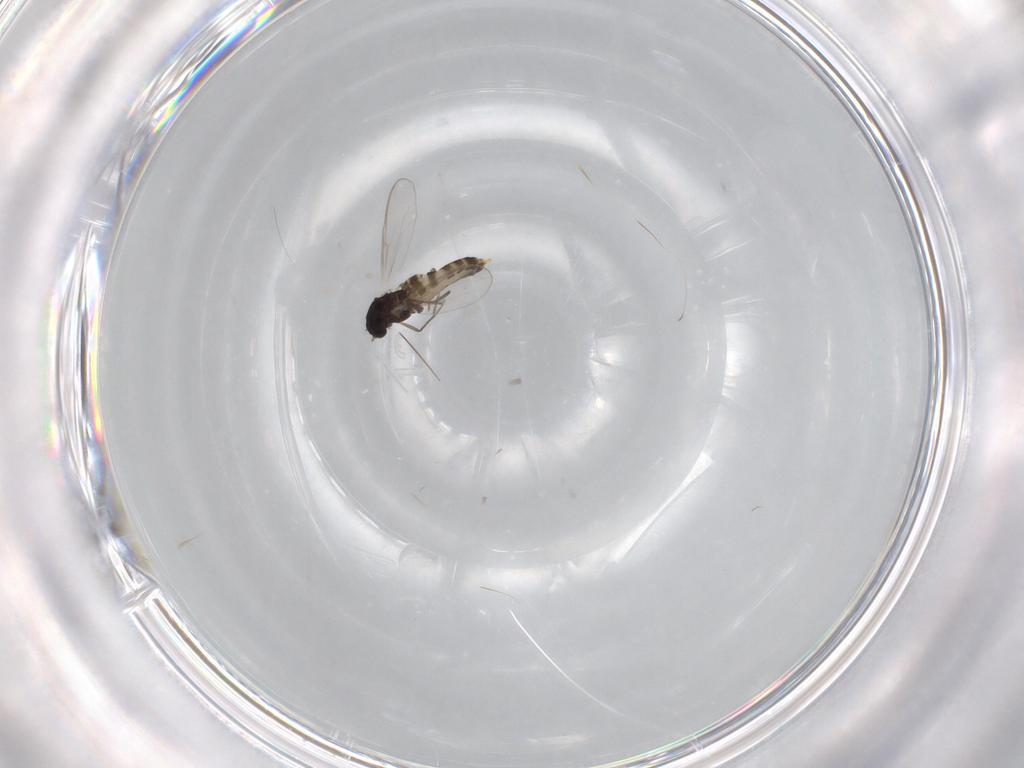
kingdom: Animalia
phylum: Arthropoda
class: Insecta
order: Diptera
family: Chironomidae
